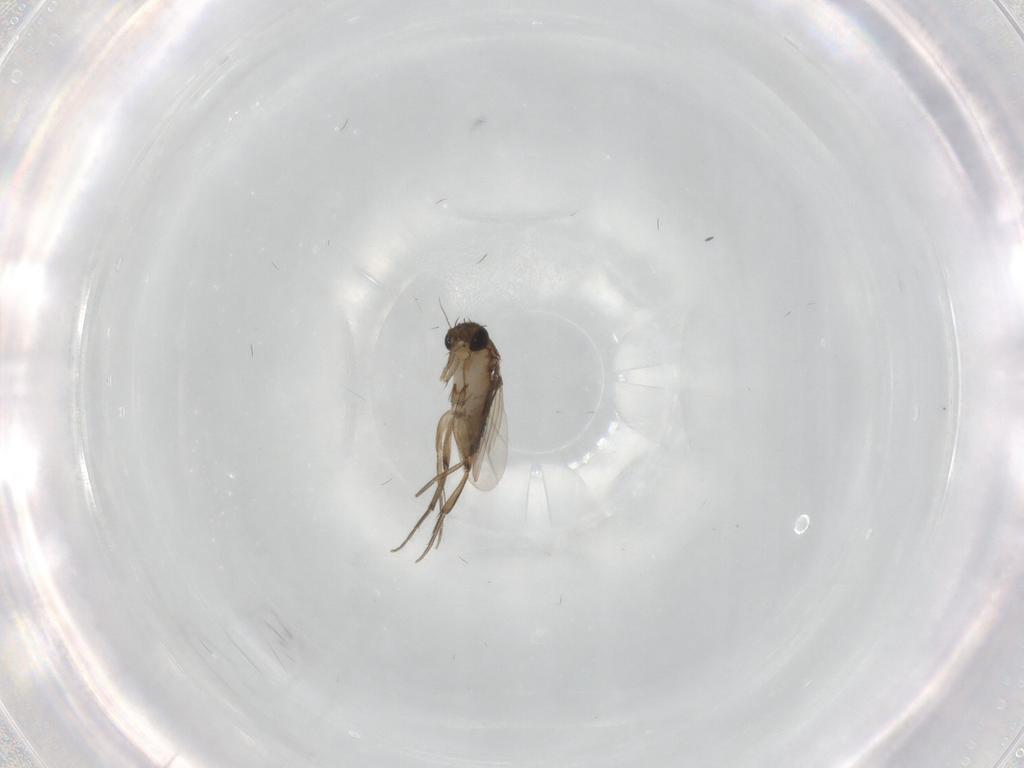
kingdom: Animalia
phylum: Arthropoda
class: Insecta
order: Diptera
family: Phoridae
